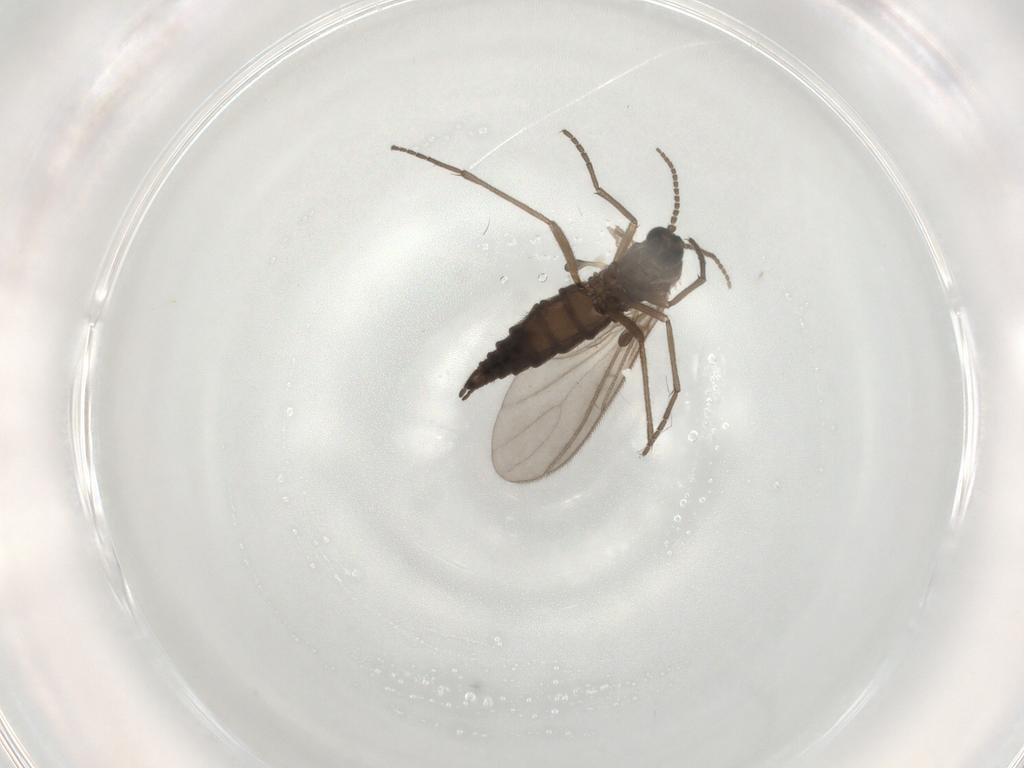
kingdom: Animalia
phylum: Arthropoda
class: Insecta
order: Diptera
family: Sciaridae
